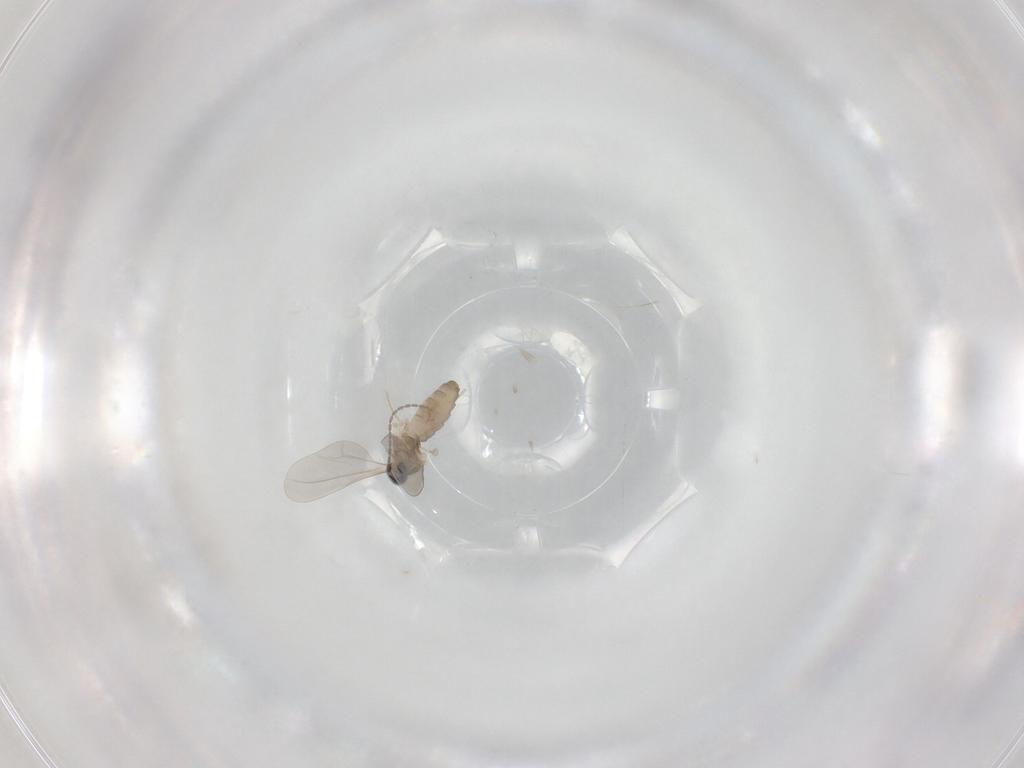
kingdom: Animalia
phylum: Arthropoda
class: Insecta
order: Diptera
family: Cecidomyiidae
